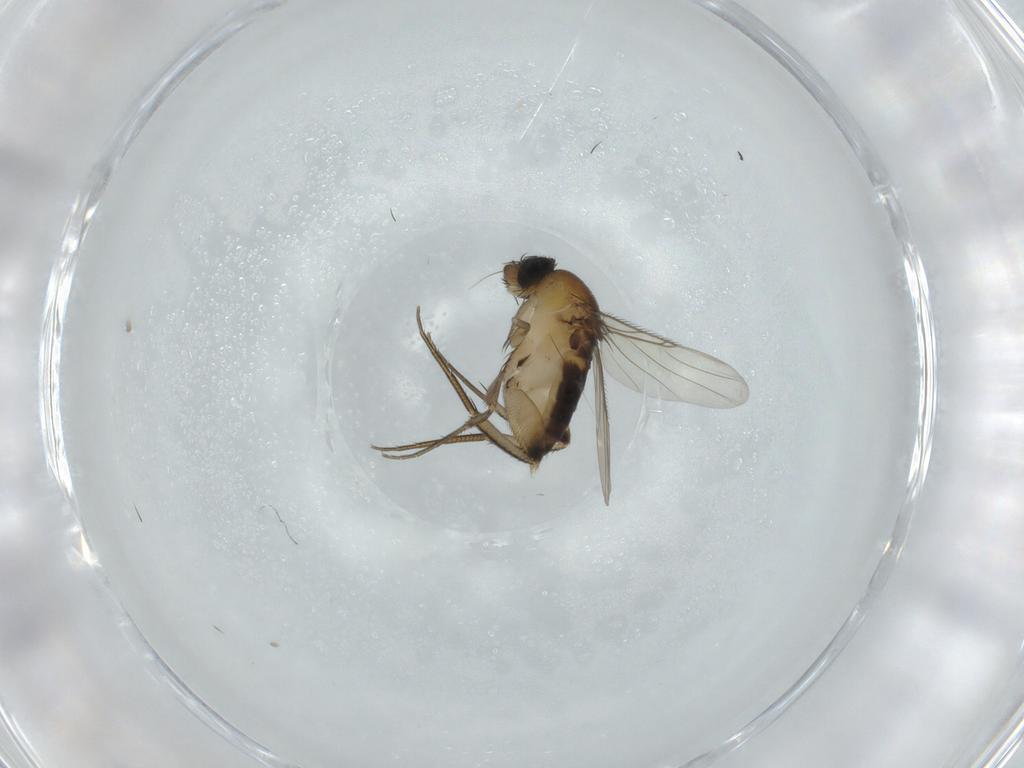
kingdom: Animalia
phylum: Arthropoda
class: Insecta
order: Diptera
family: Phoridae
